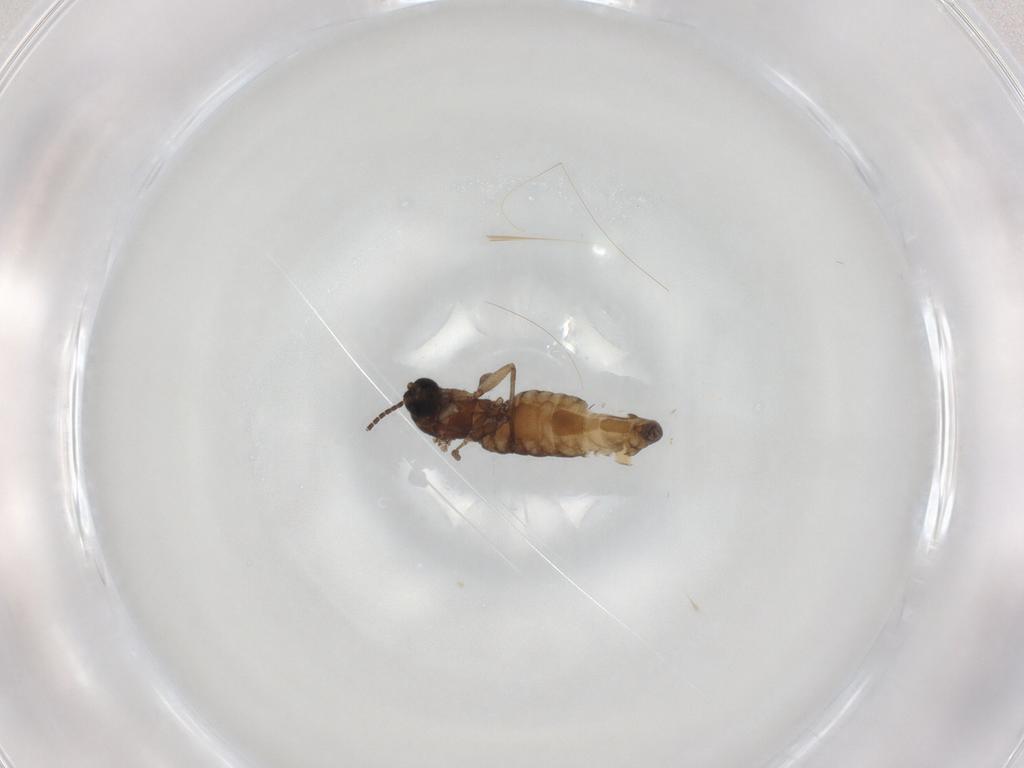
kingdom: Animalia
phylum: Arthropoda
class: Insecta
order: Diptera
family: Sciaridae
